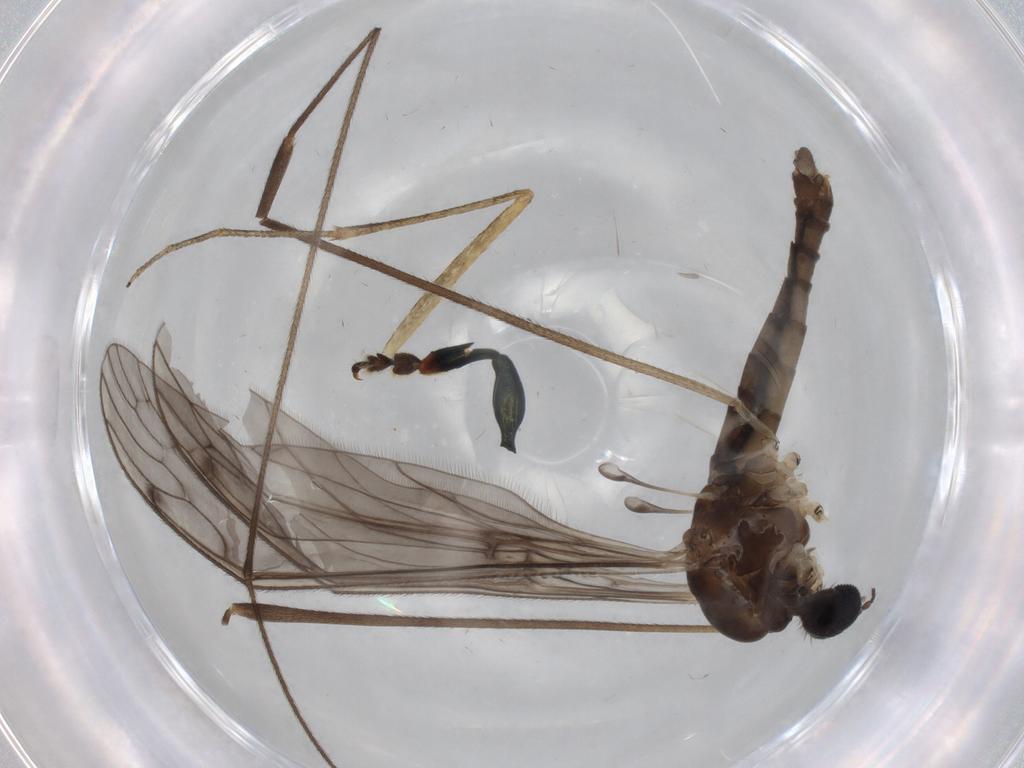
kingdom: Animalia
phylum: Arthropoda
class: Insecta
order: Diptera
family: Limoniidae
